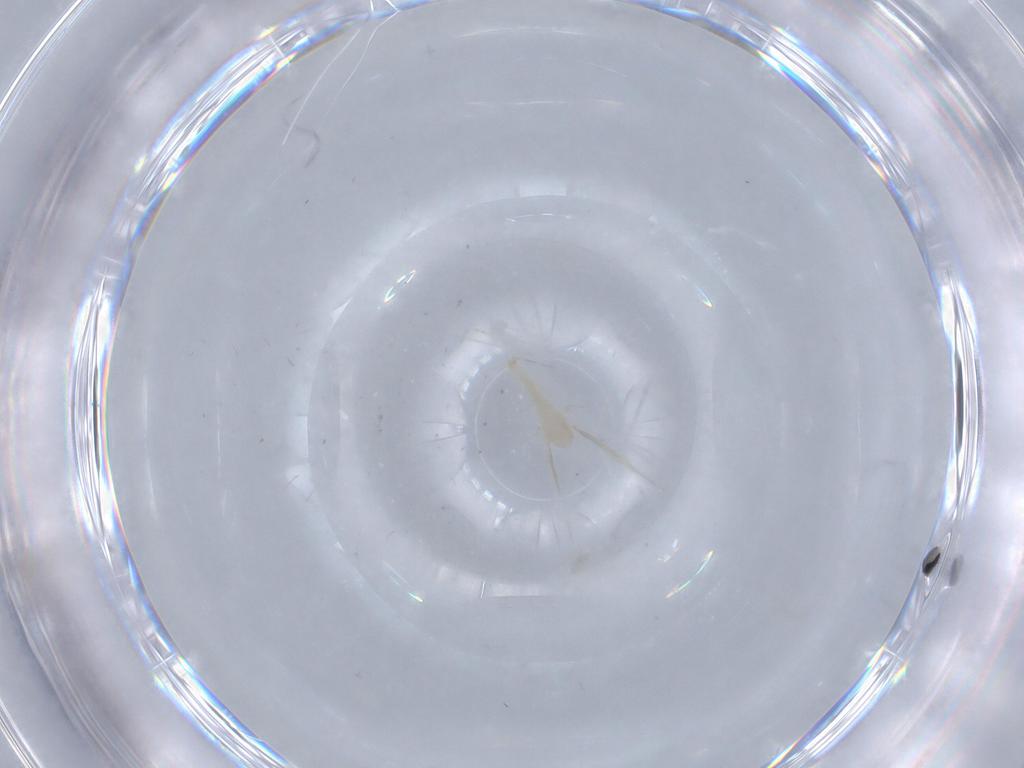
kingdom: Animalia
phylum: Arthropoda
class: Insecta
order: Diptera
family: Cecidomyiidae
